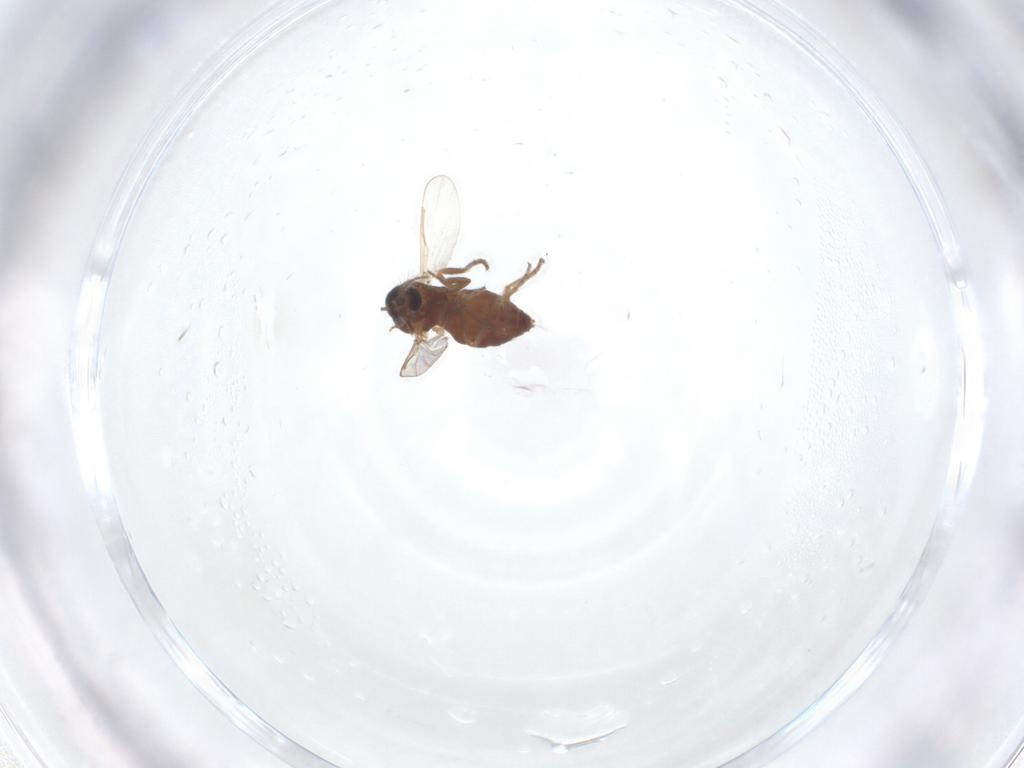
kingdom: Animalia
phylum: Arthropoda
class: Insecta
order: Diptera
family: Ceratopogonidae
